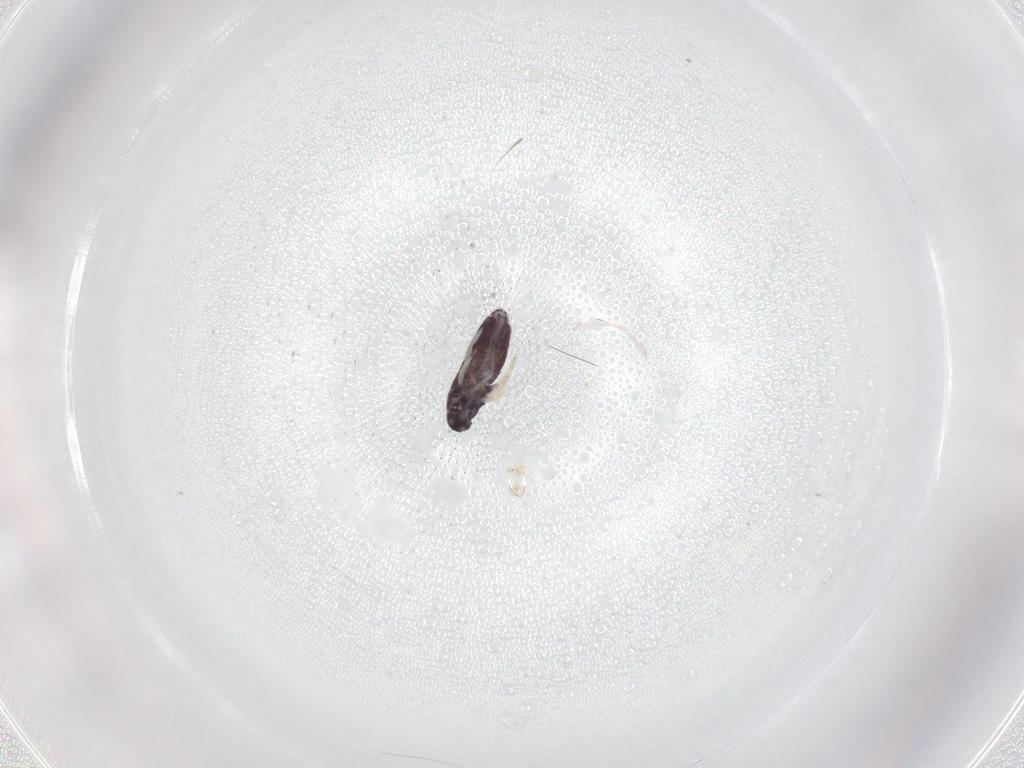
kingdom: Animalia
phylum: Arthropoda
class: Collembola
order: Entomobryomorpha
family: Entomobryidae
